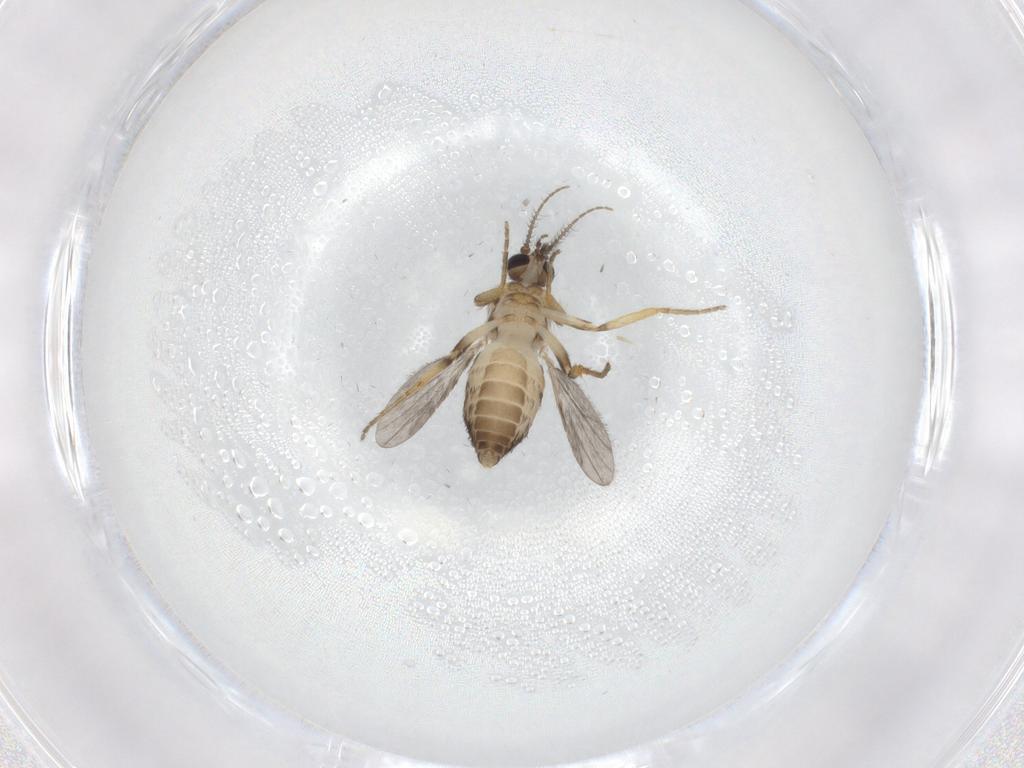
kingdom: Animalia
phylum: Arthropoda
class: Insecta
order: Diptera
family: Ceratopogonidae
